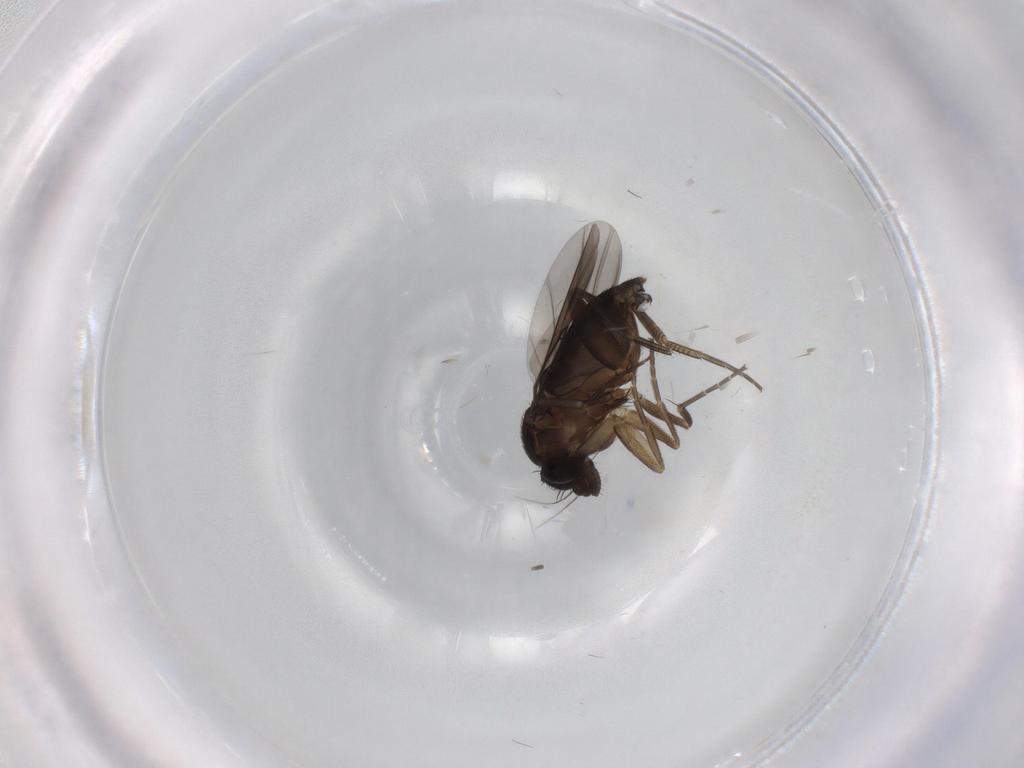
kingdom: Animalia
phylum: Arthropoda
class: Insecta
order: Diptera
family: Phoridae
